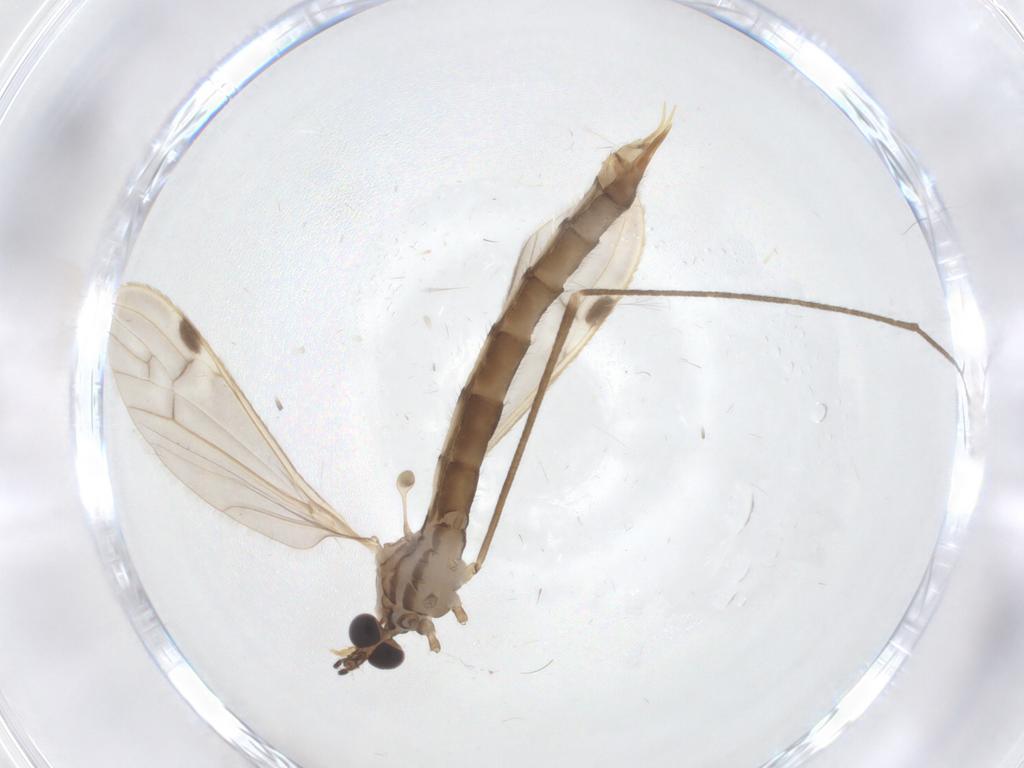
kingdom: Animalia
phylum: Arthropoda
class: Insecta
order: Diptera
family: Limoniidae
